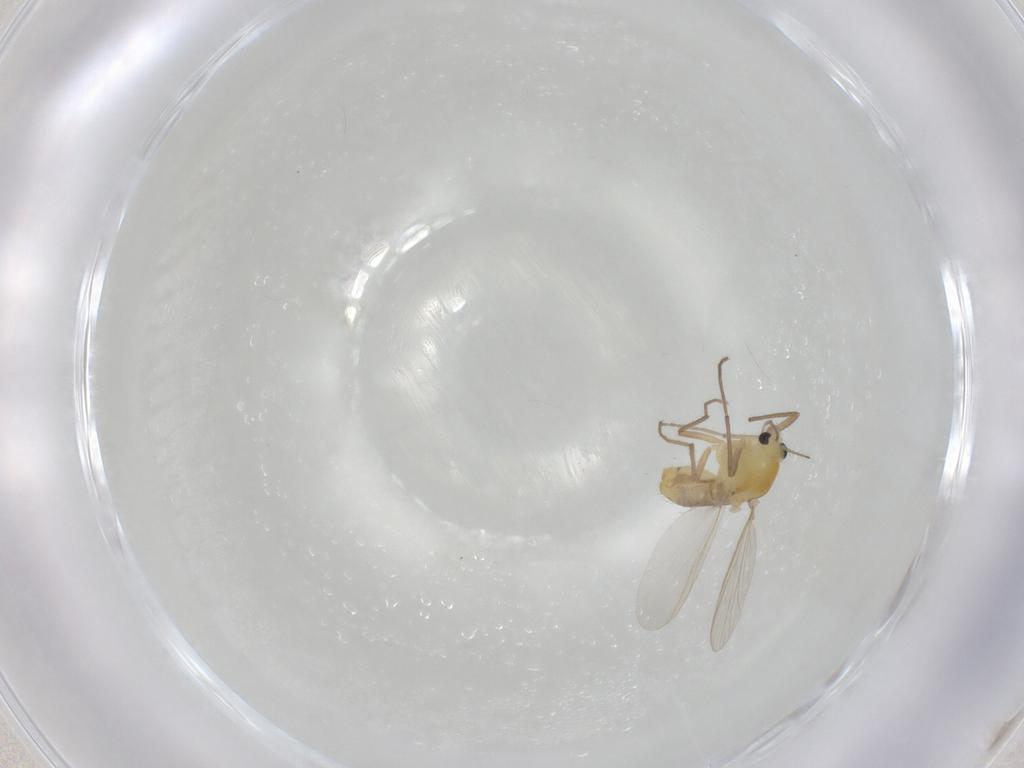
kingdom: Animalia
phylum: Arthropoda
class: Insecta
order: Diptera
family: Chironomidae
